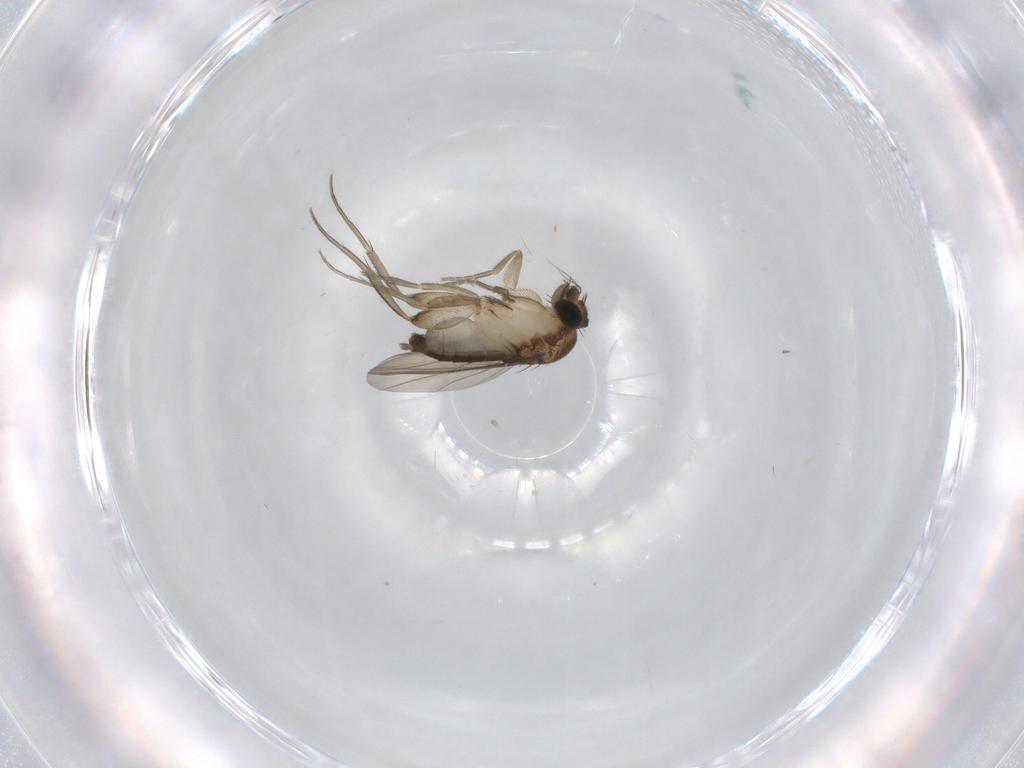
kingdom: Animalia
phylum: Arthropoda
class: Insecta
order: Diptera
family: Phoridae
